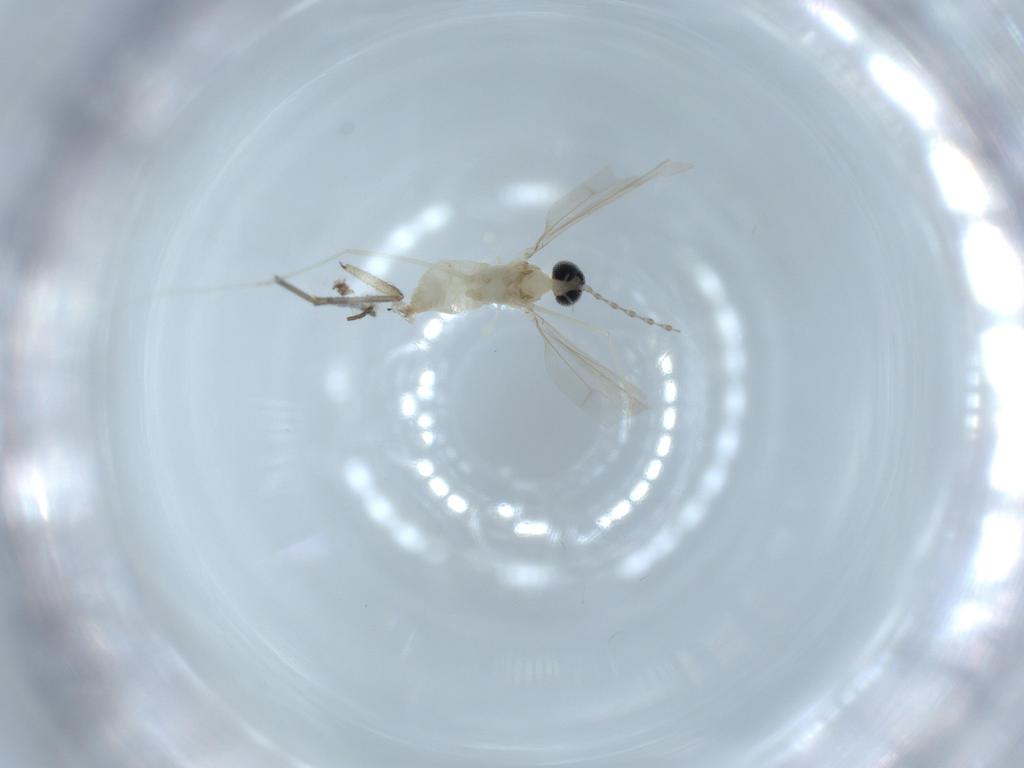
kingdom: Animalia
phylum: Arthropoda
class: Insecta
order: Diptera
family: Cecidomyiidae
